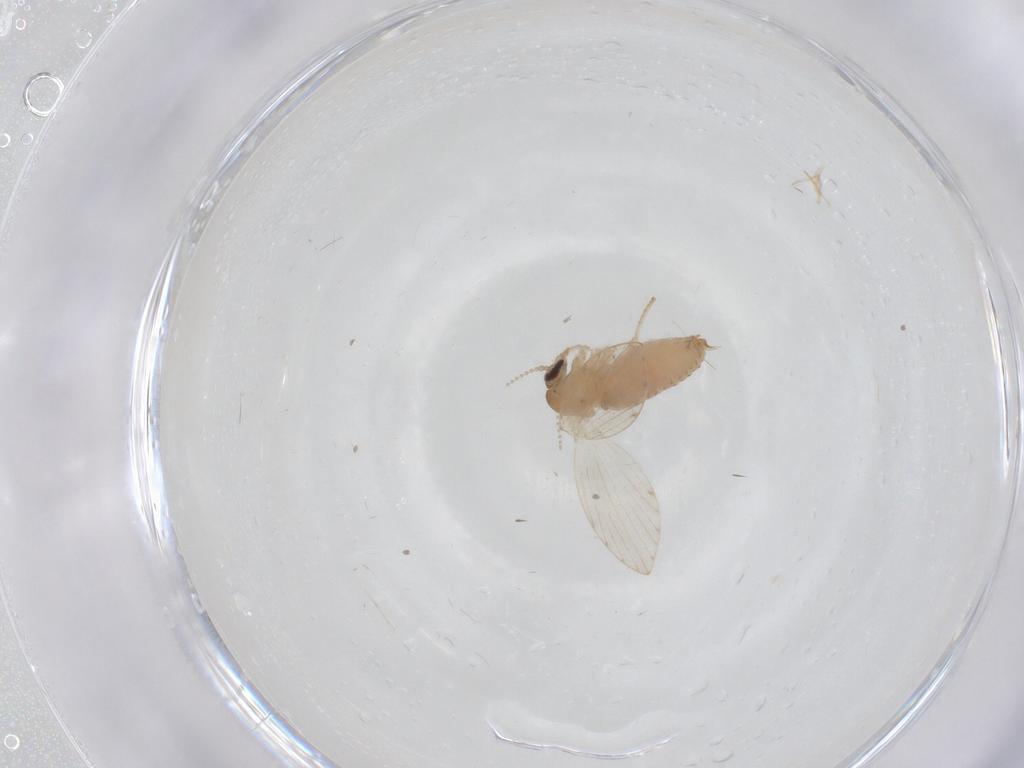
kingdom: Animalia
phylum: Arthropoda
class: Insecta
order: Diptera
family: Psychodidae
